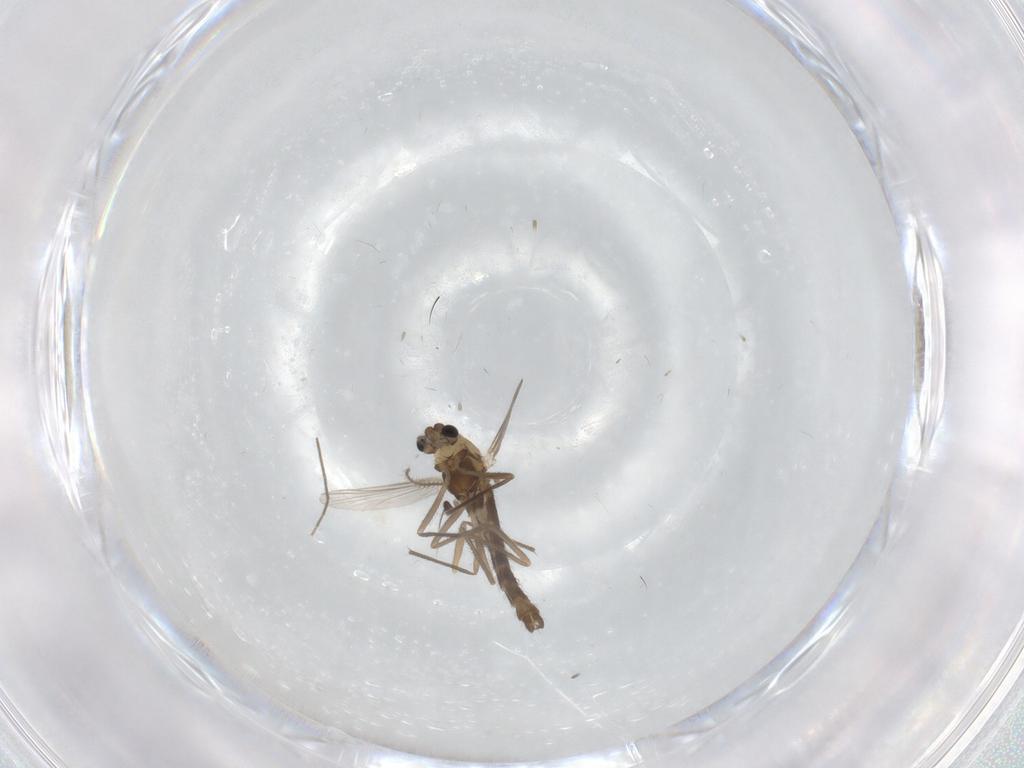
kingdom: Animalia
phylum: Arthropoda
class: Insecta
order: Diptera
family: Chironomidae
